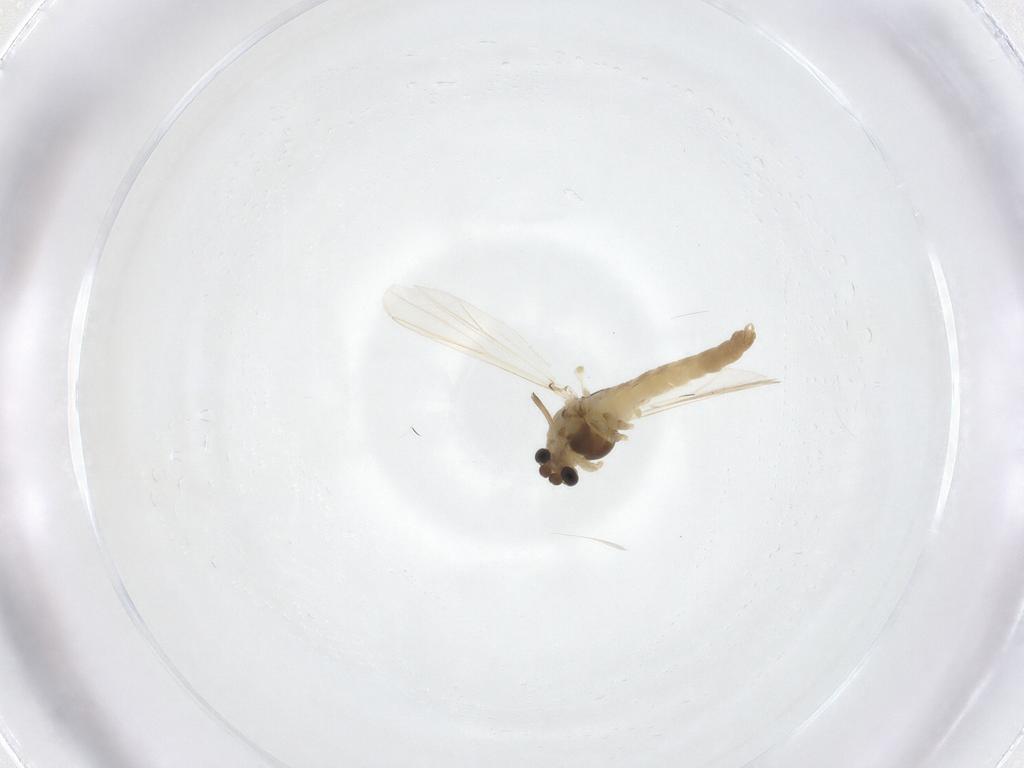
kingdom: Animalia
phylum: Arthropoda
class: Insecta
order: Diptera
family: Chironomidae
